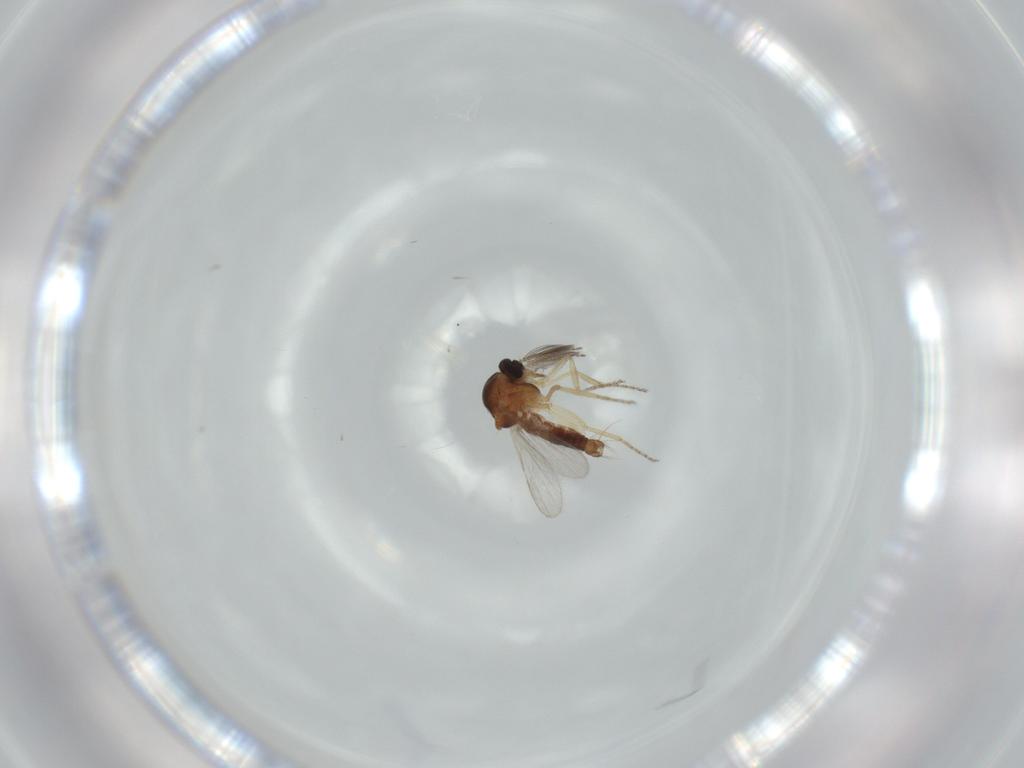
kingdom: Animalia
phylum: Arthropoda
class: Insecta
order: Diptera
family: Ceratopogonidae
